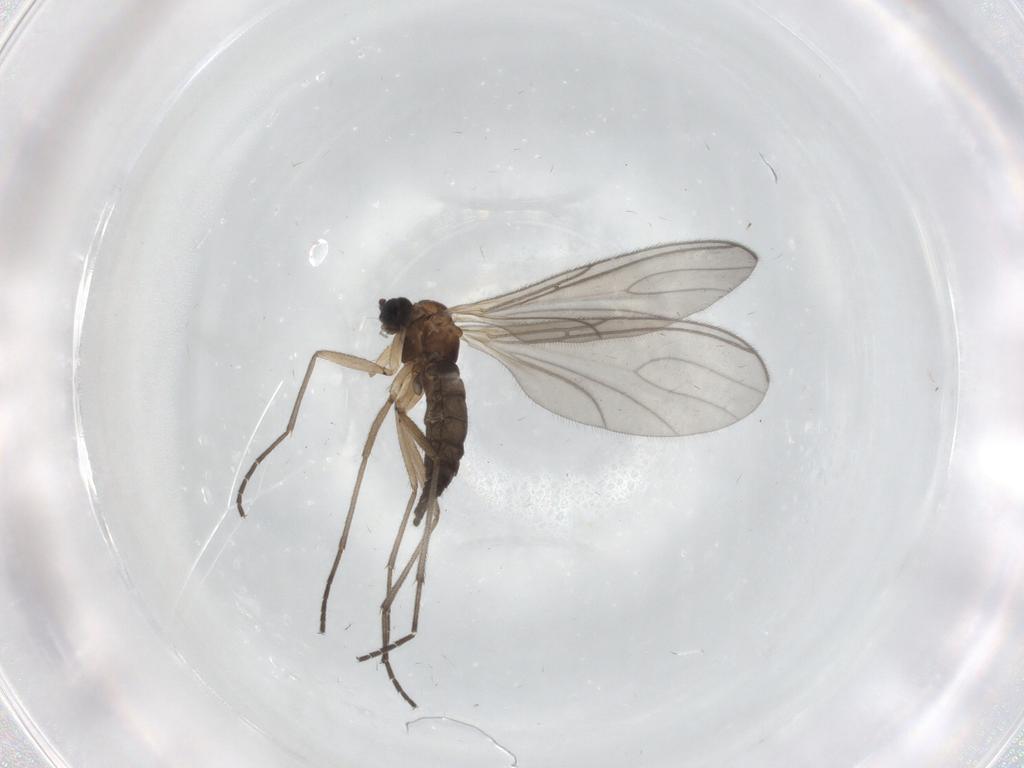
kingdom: Animalia
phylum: Arthropoda
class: Insecta
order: Diptera
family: Sciaridae
